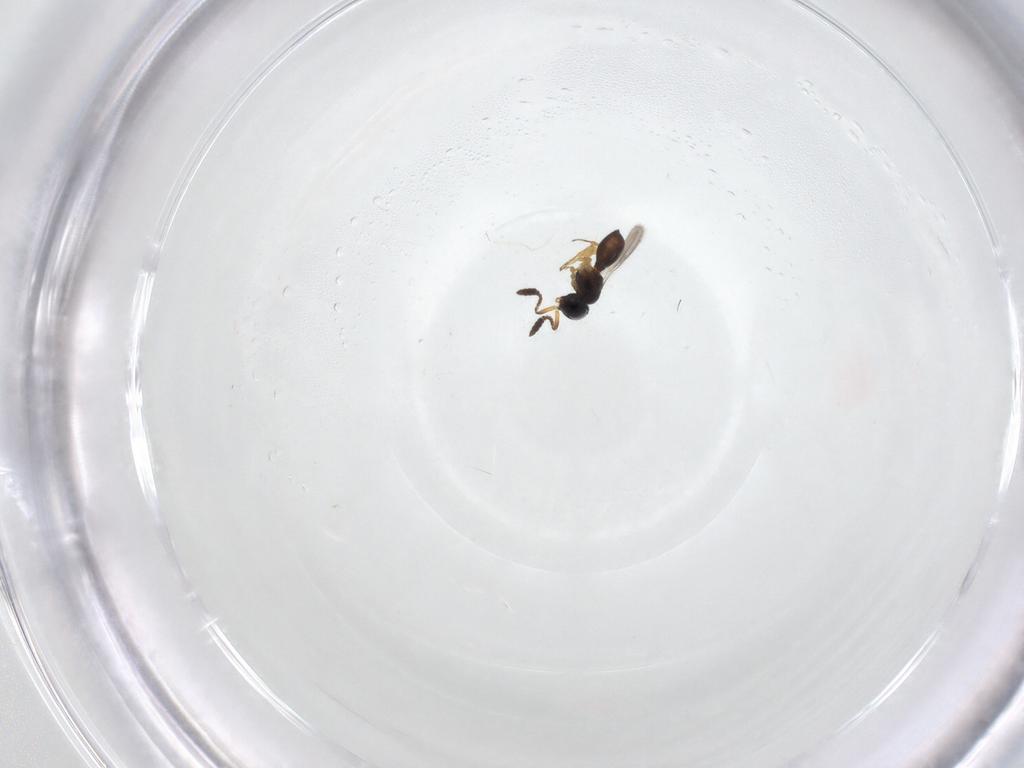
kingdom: Animalia
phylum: Arthropoda
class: Insecta
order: Hymenoptera
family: Scelionidae
